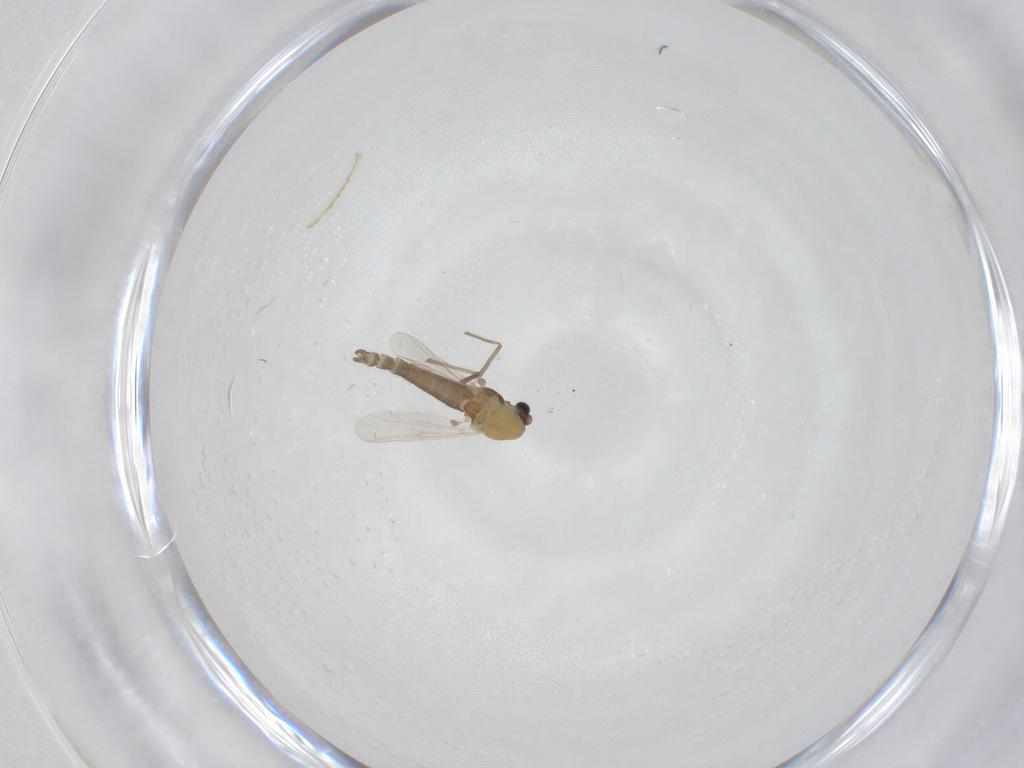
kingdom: Animalia
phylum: Arthropoda
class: Insecta
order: Diptera
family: Chironomidae
